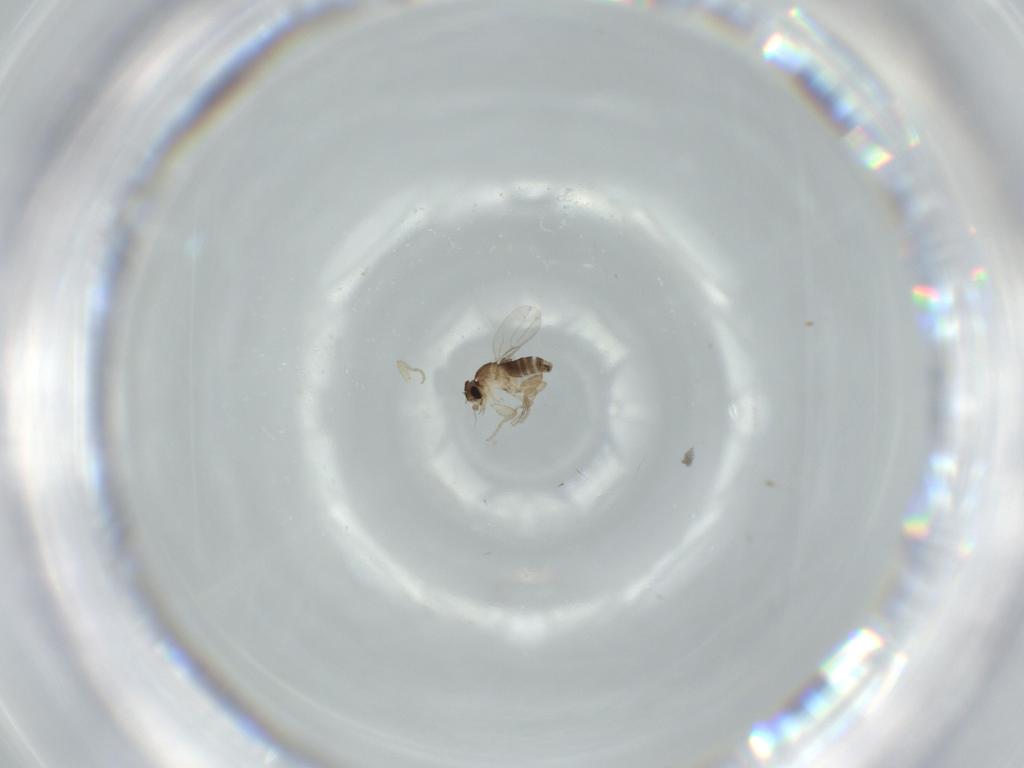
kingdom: Animalia
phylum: Arthropoda
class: Insecta
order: Diptera
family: Phoridae
